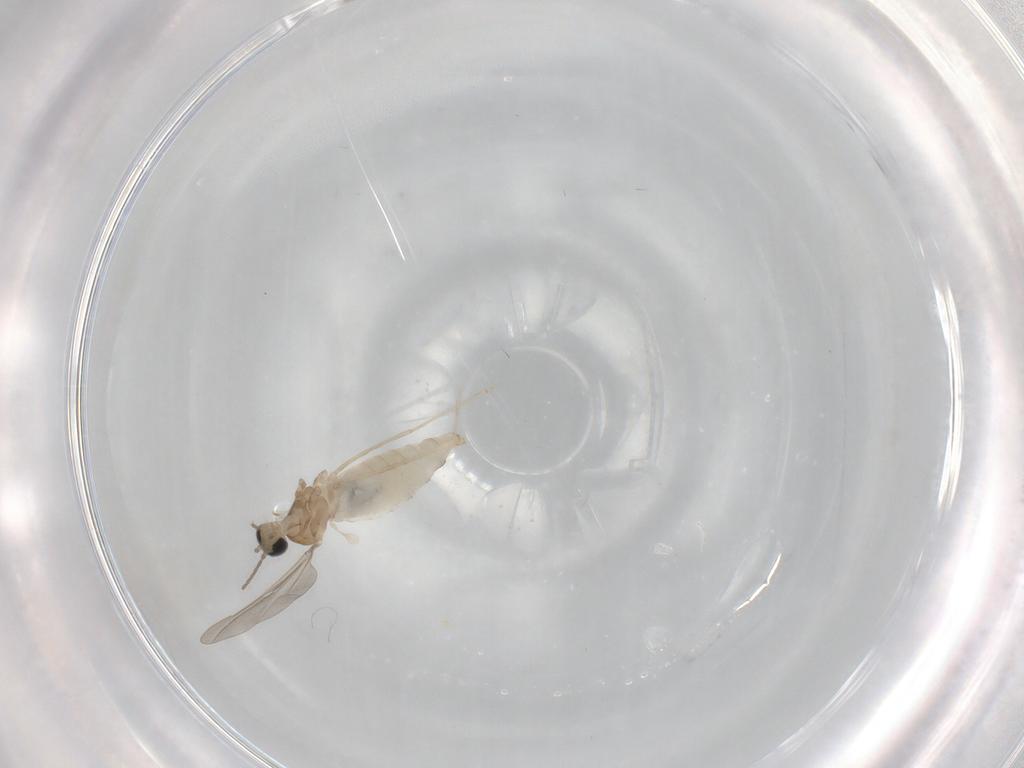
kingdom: Animalia
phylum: Arthropoda
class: Insecta
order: Diptera
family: Cecidomyiidae
